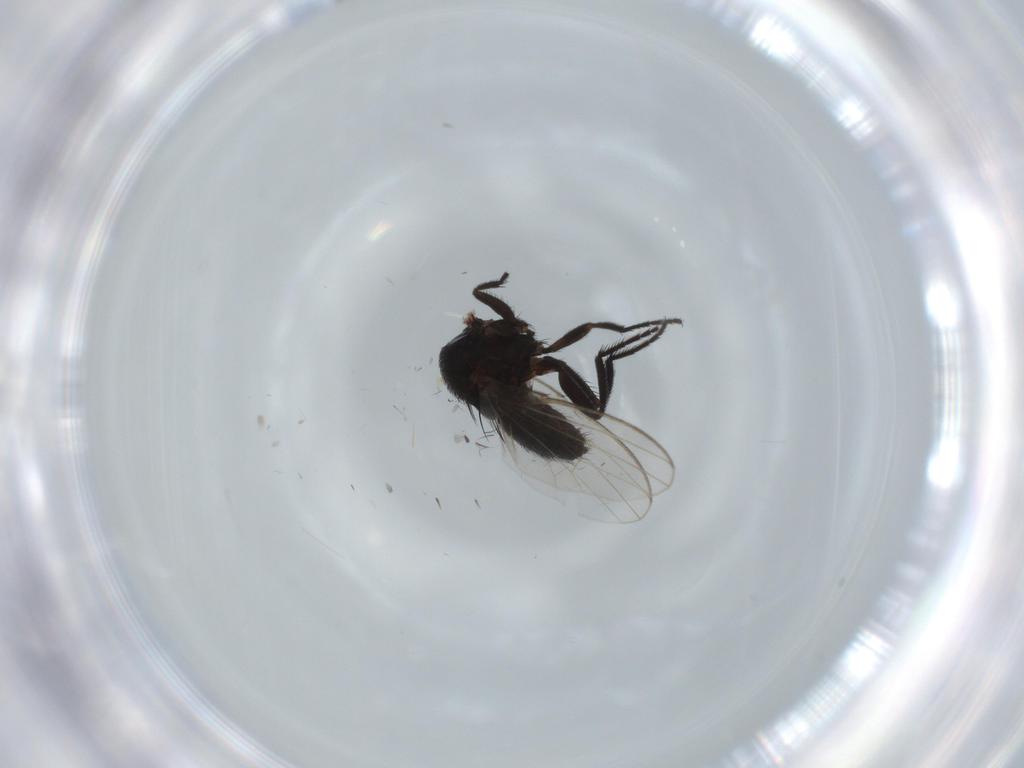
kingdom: Animalia
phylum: Arthropoda
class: Insecta
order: Diptera
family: Milichiidae
